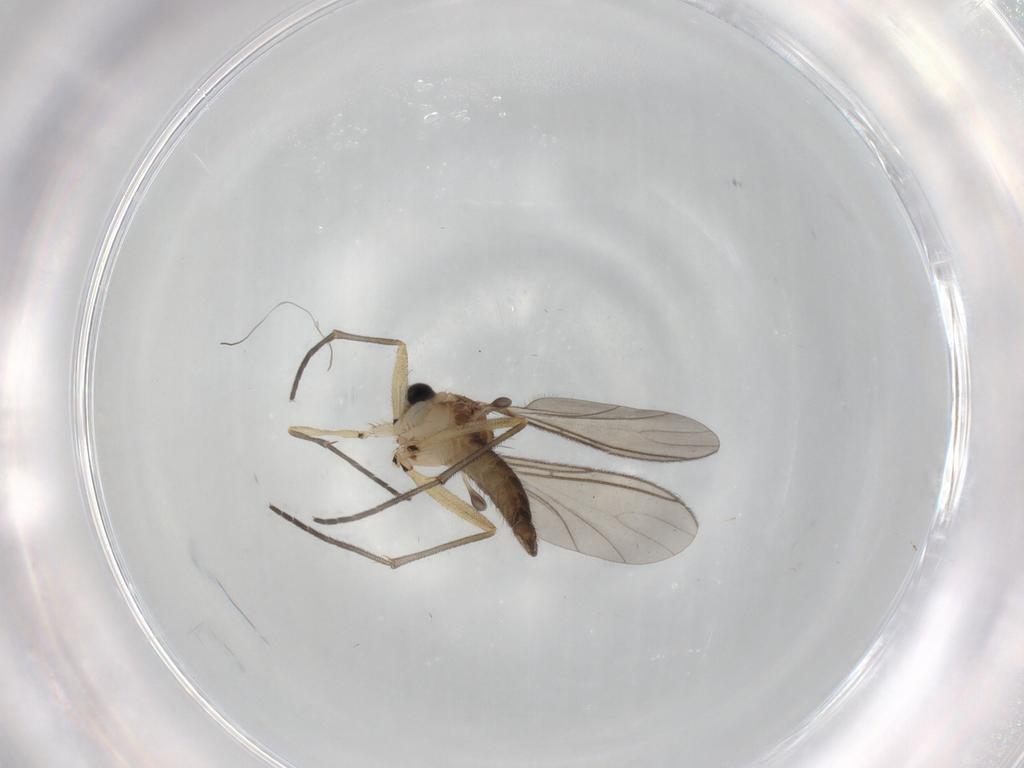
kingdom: Animalia
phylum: Arthropoda
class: Insecta
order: Diptera
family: Sciaridae
